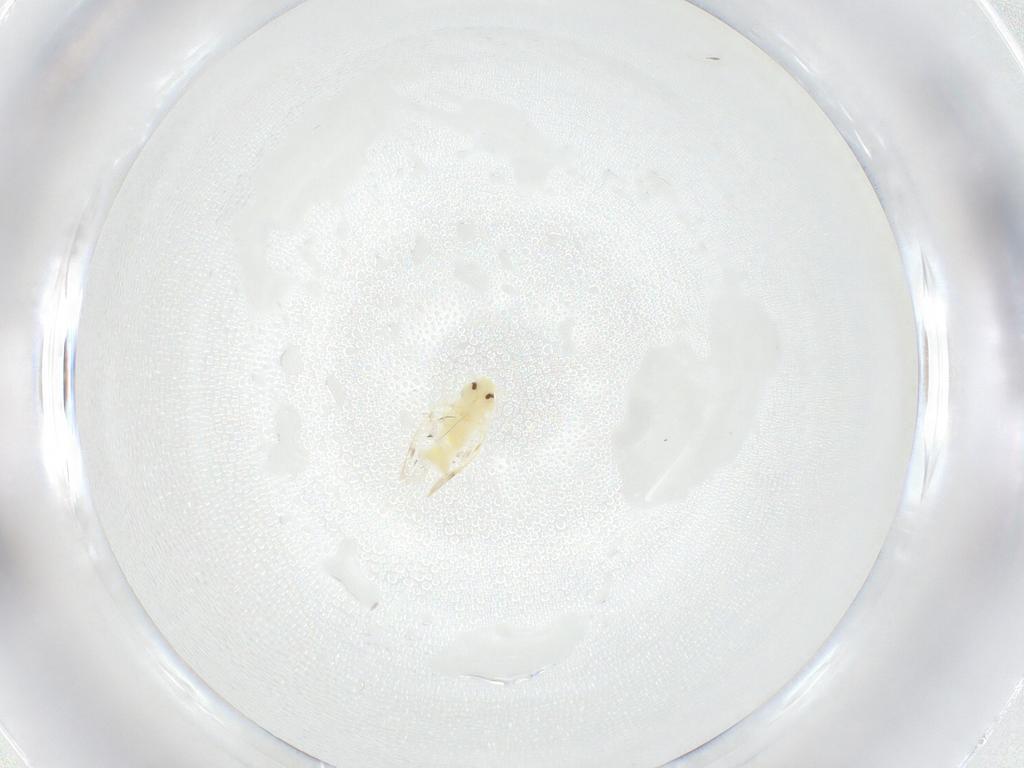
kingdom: Animalia
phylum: Arthropoda
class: Insecta
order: Hemiptera
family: Aleyrodidae
